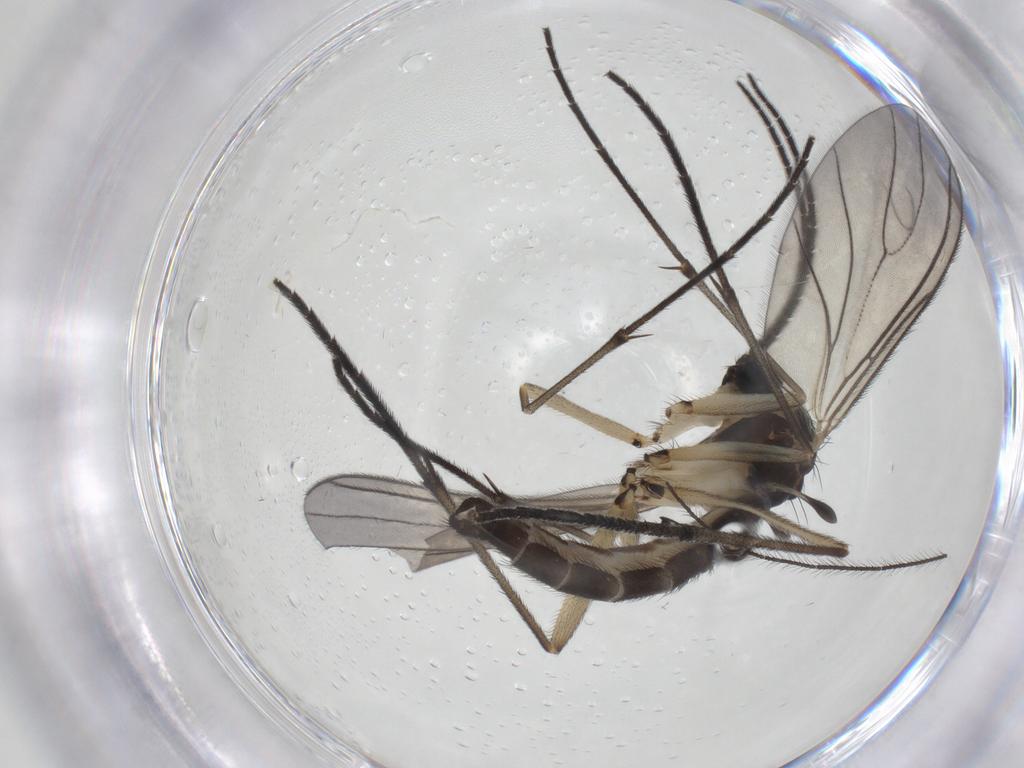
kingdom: Animalia
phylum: Arthropoda
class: Insecta
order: Diptera
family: Sciaridae
